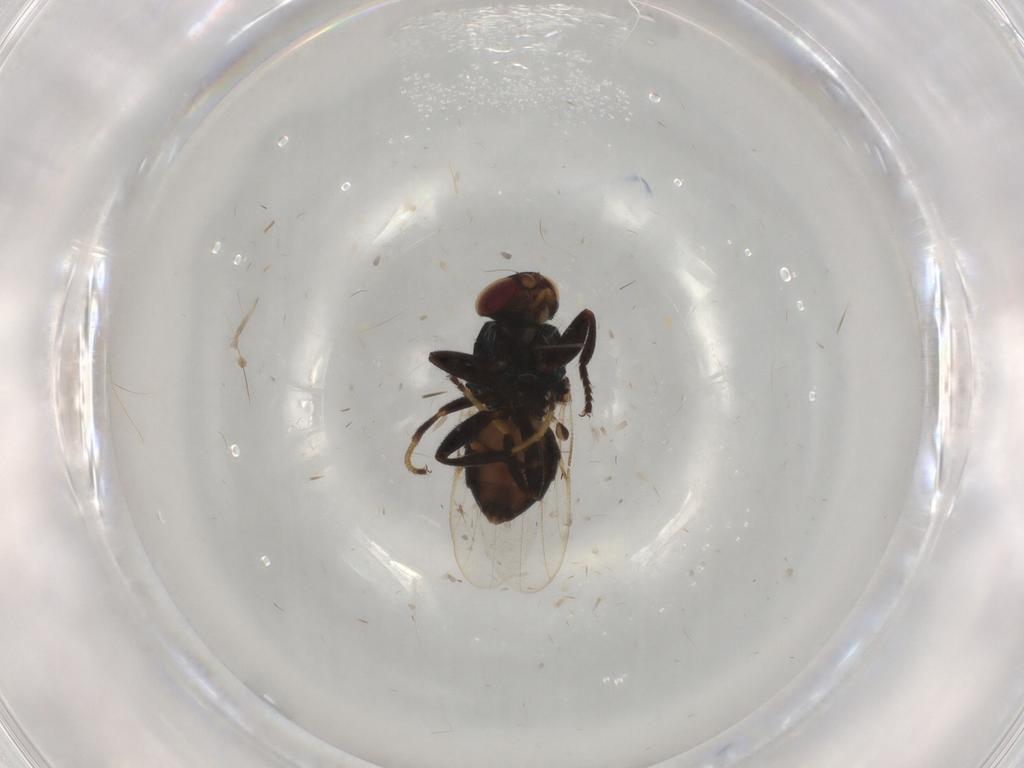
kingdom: Animalia
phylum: Arthropoda
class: Insecta
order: Diptera
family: Chloropidae
